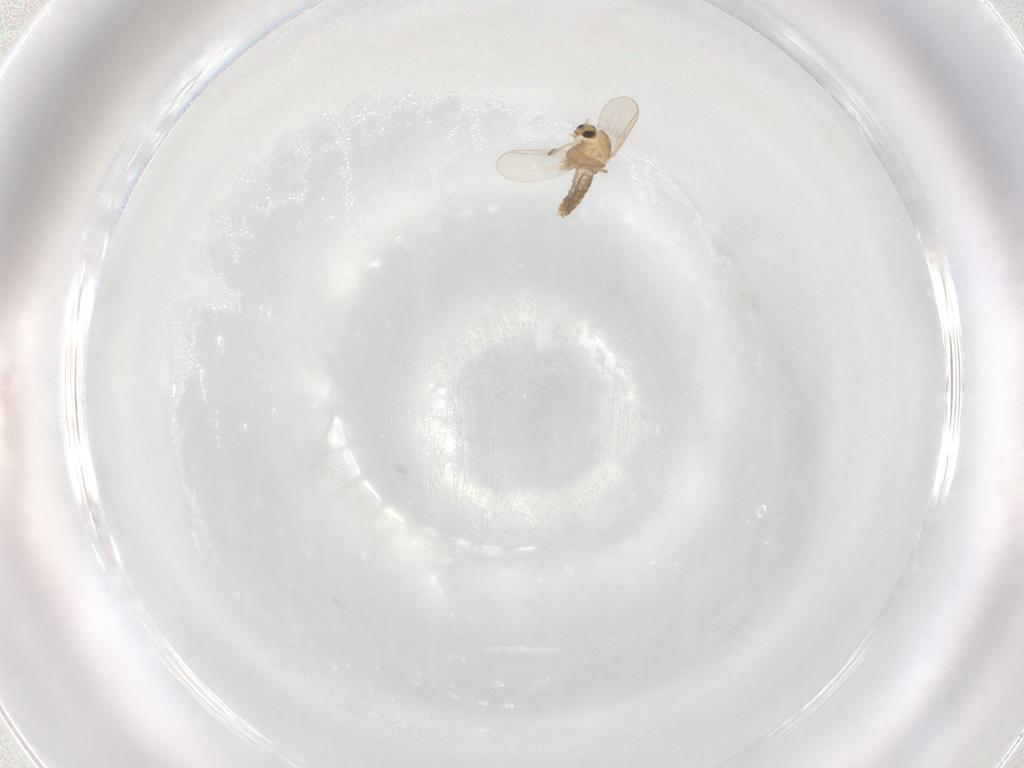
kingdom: Animalia
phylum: Arthropoda
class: Insecta
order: Diptera
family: Chironomidae
